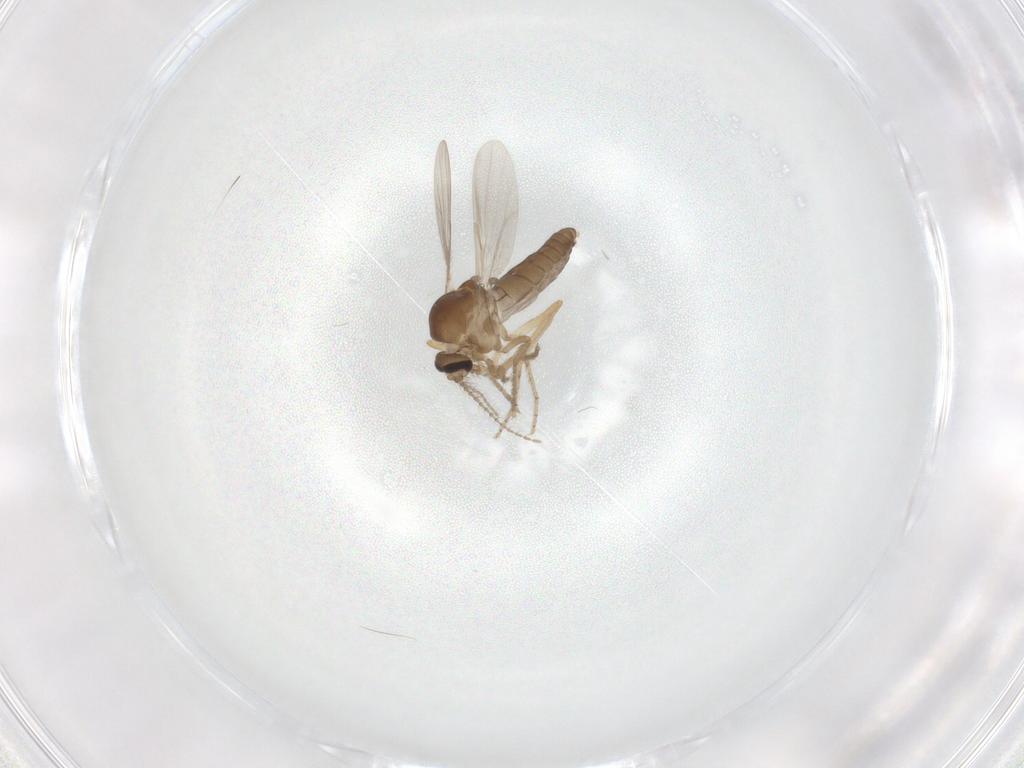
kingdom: Animalia
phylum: Arthropoda
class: Insecta
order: Diptera
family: Ceratopogonidae
